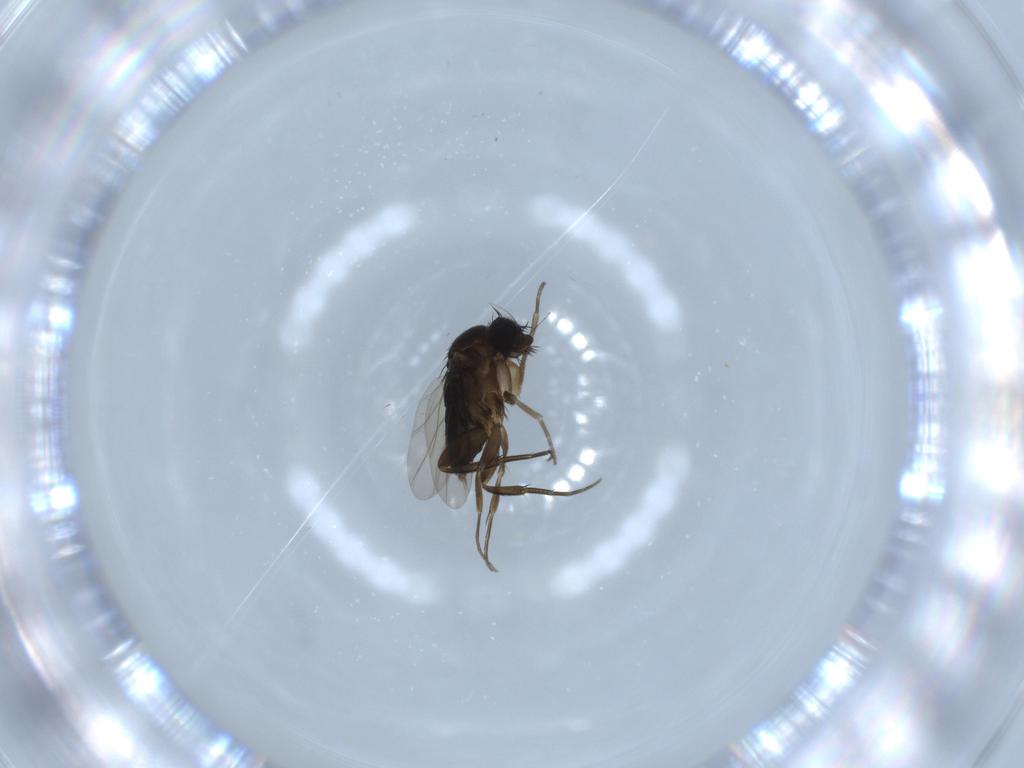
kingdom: Animalia
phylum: Arthropoda
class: Insecta
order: Diptera
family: Phoridae
